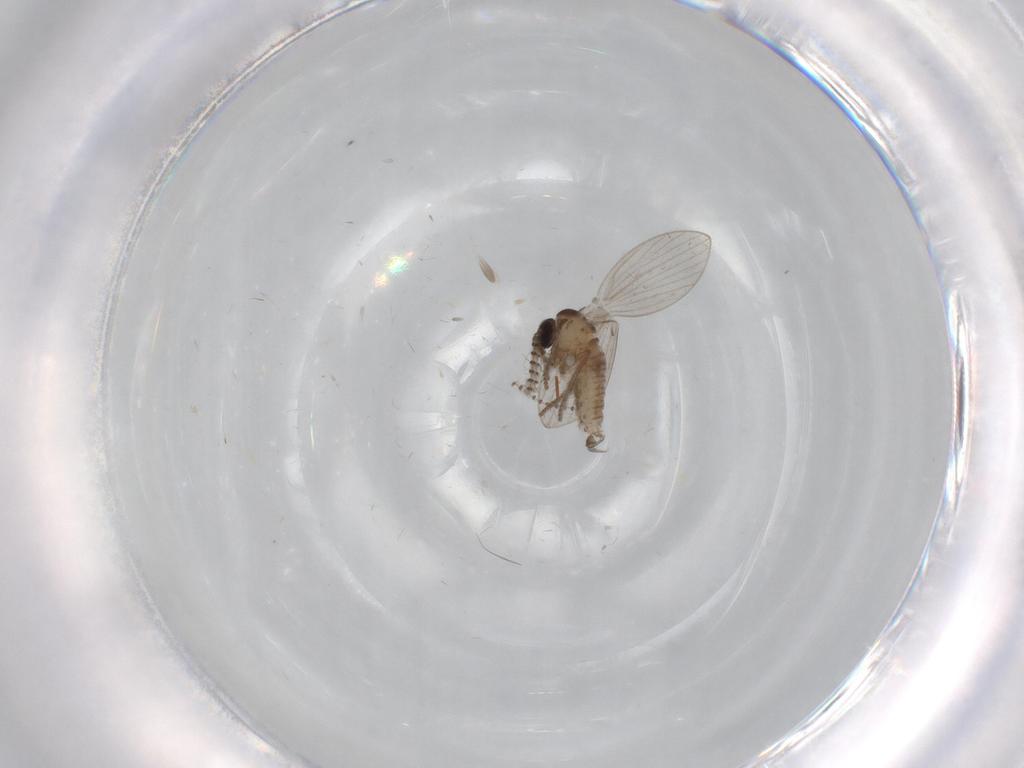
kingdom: Animalia
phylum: Arthropoda
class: Insecta
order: Diptera
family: Psychodidae
